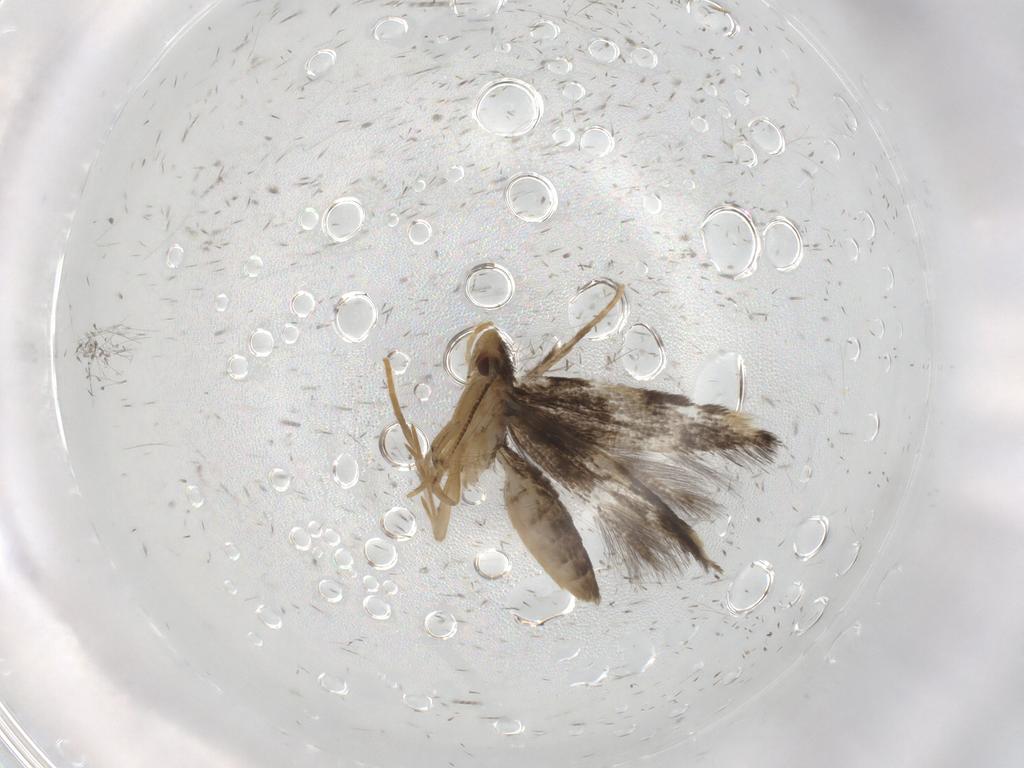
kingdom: Animalia
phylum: Arthropoda
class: Insecta
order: Lepidoptera
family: Elachistidae
